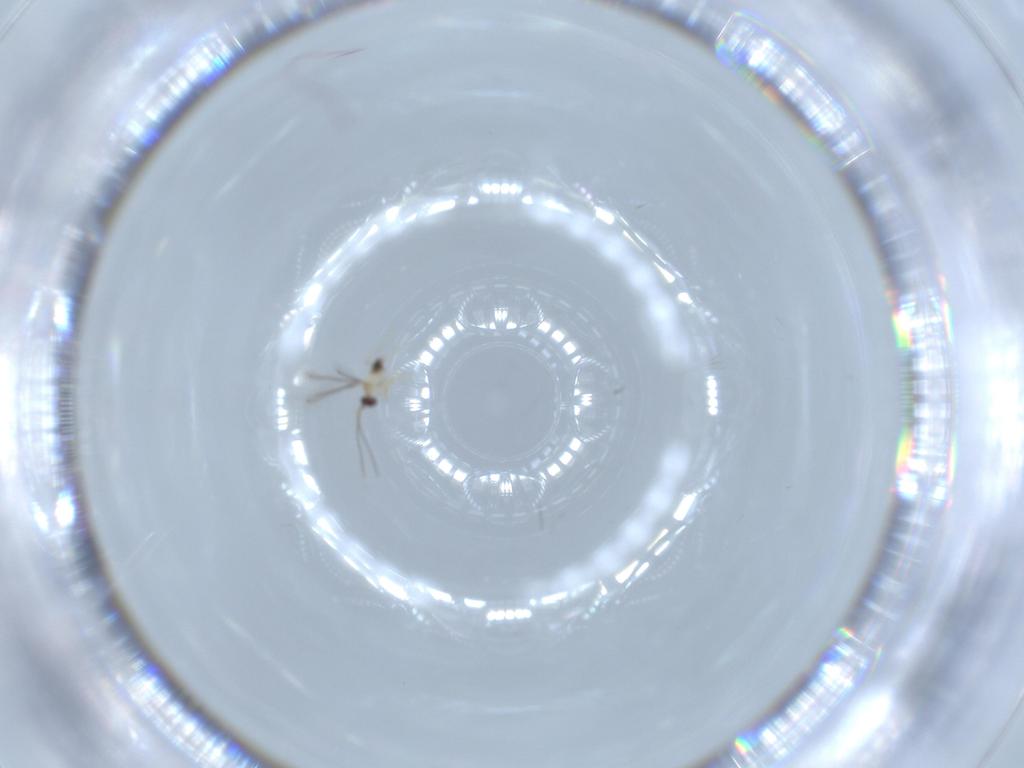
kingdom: Animalia
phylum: Arthropoda
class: Insecta
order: Hymenoptera
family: Mymaridae
